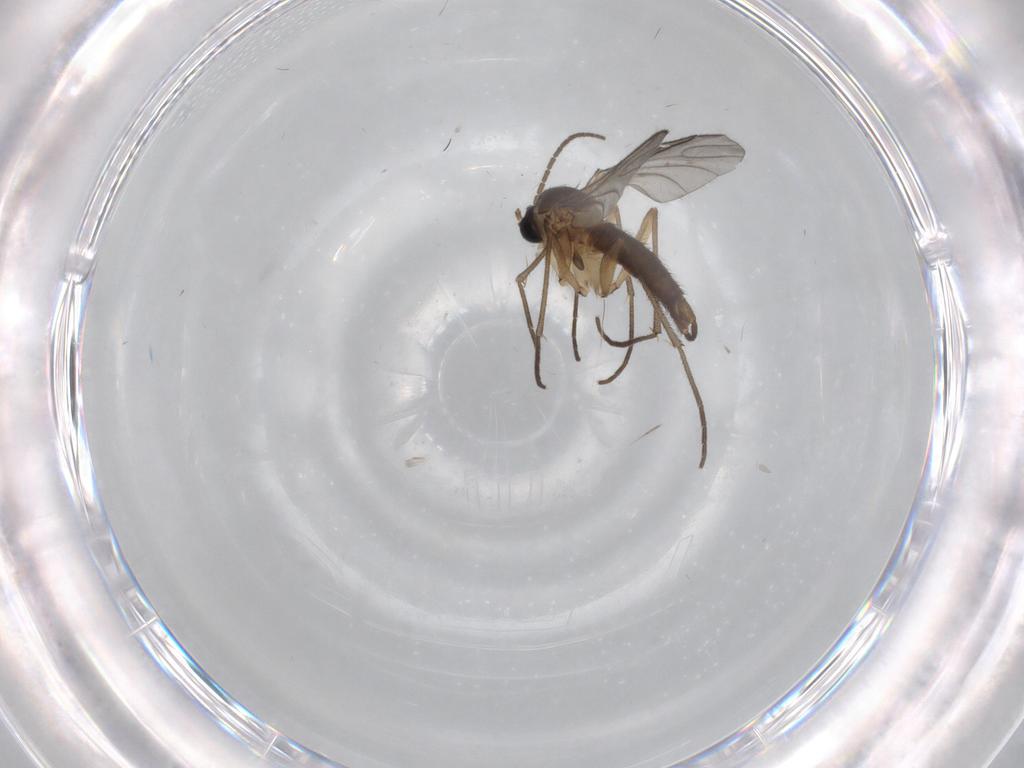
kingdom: Animalia
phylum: Arthropoda
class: Insecta
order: Diptera
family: Sciaridae
